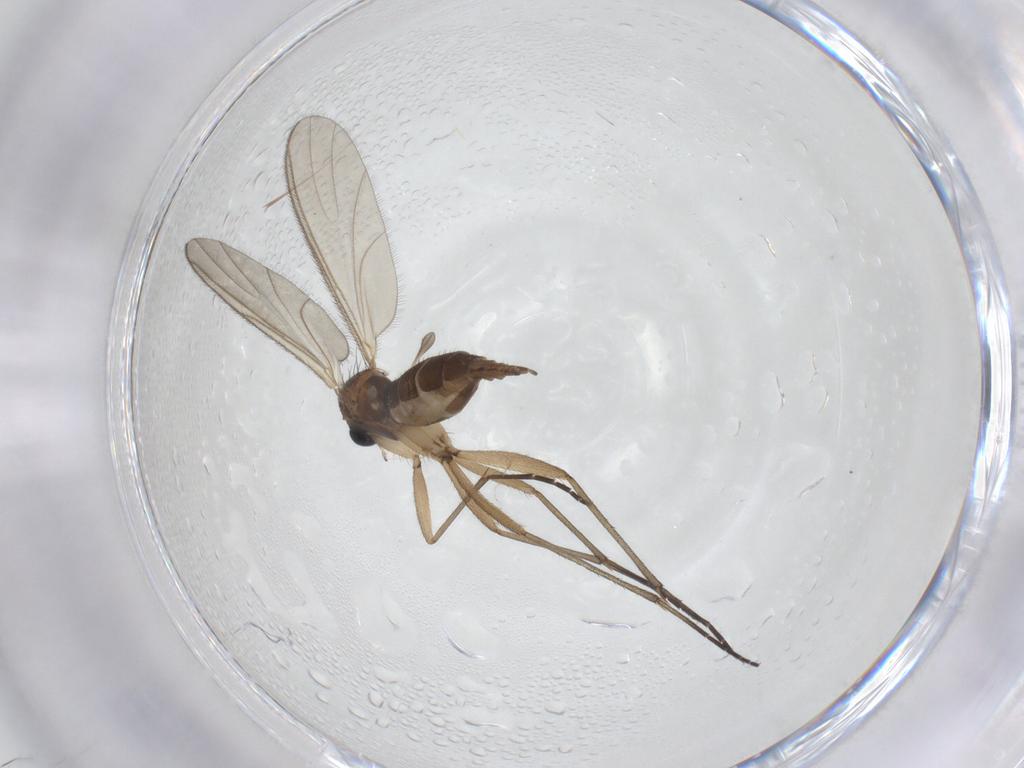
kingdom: Animalia
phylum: Arthropoda
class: Insecta
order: Diptera
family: Sciaridae
